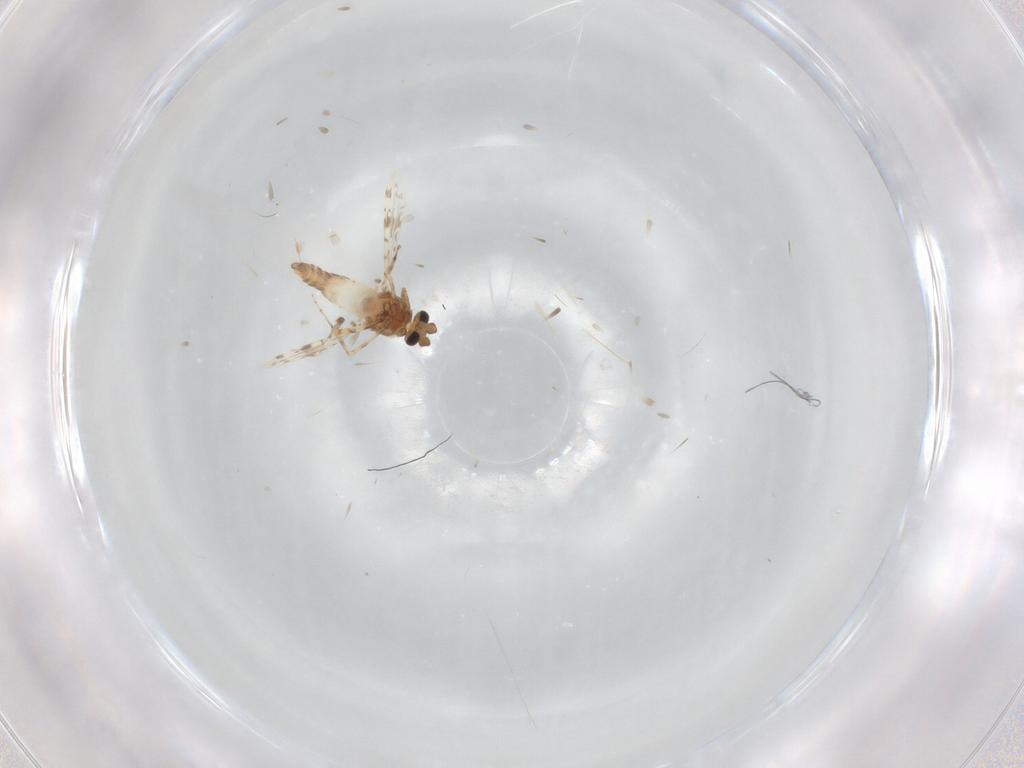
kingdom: Animalia
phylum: Arthropoda
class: Insecta
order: Diptera
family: Ceratopogonidae
